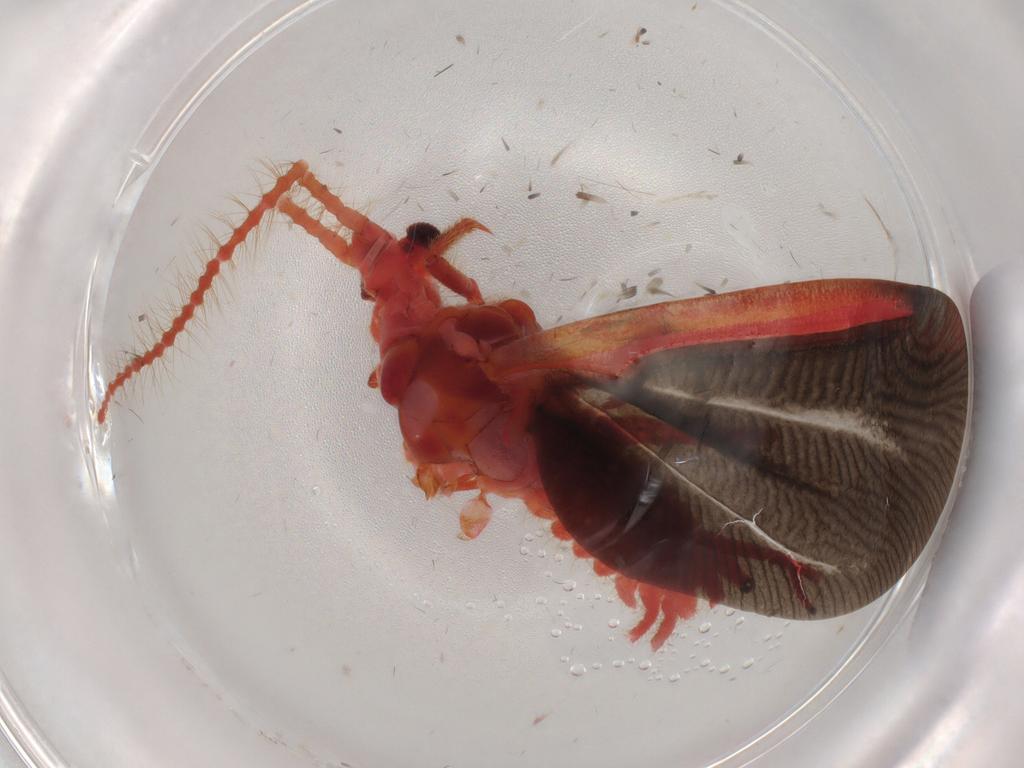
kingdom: Animalia
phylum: Arthropoda
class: Insecta
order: Hemiptera
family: Monophlebidae
